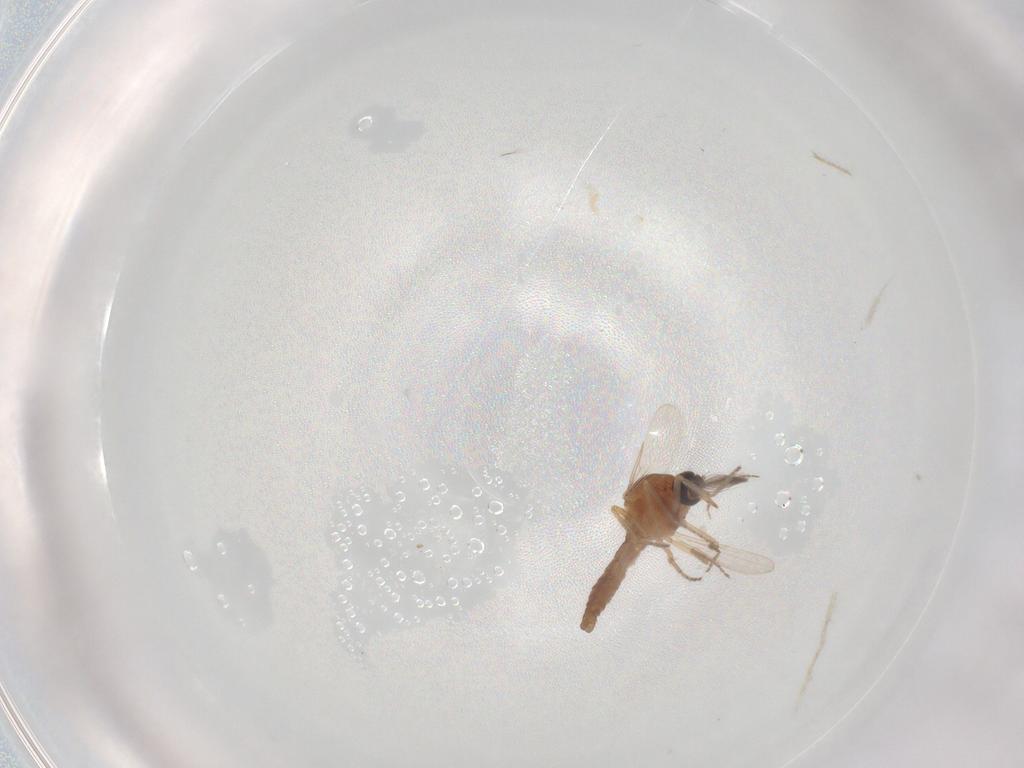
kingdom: Animalia
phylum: Arthropoda
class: Insecta
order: Diptera
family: Ceratopogonidae
